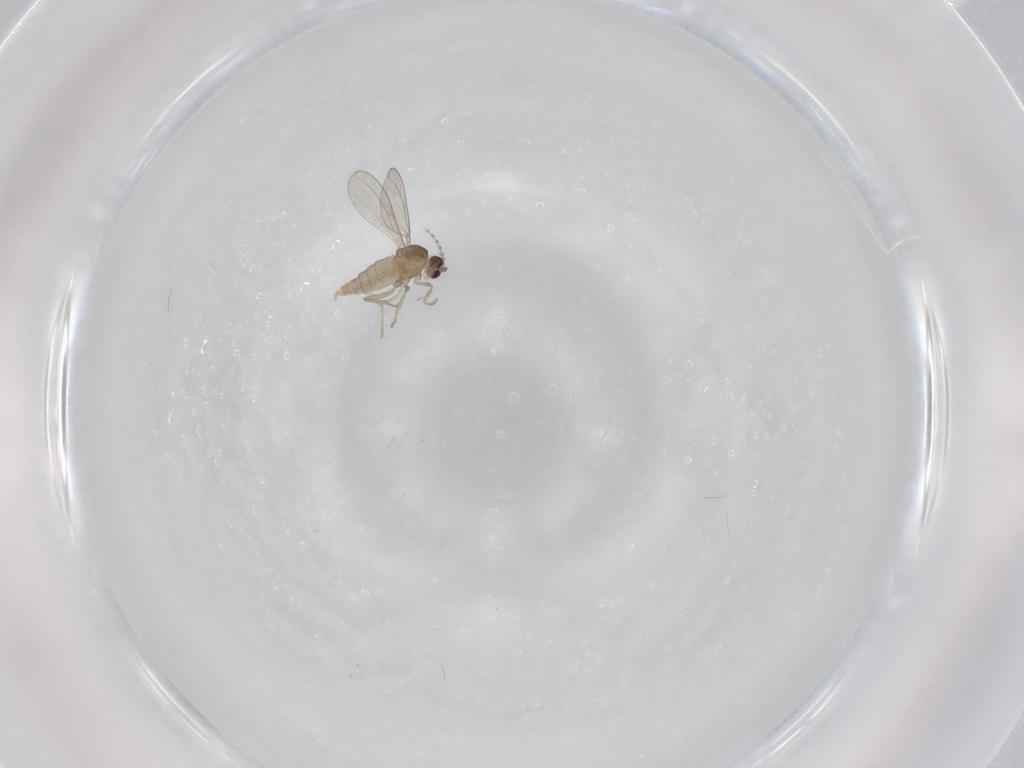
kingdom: Animalia
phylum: Arthropoda
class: Insecta
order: Diptera
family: Cecidomyiidae
